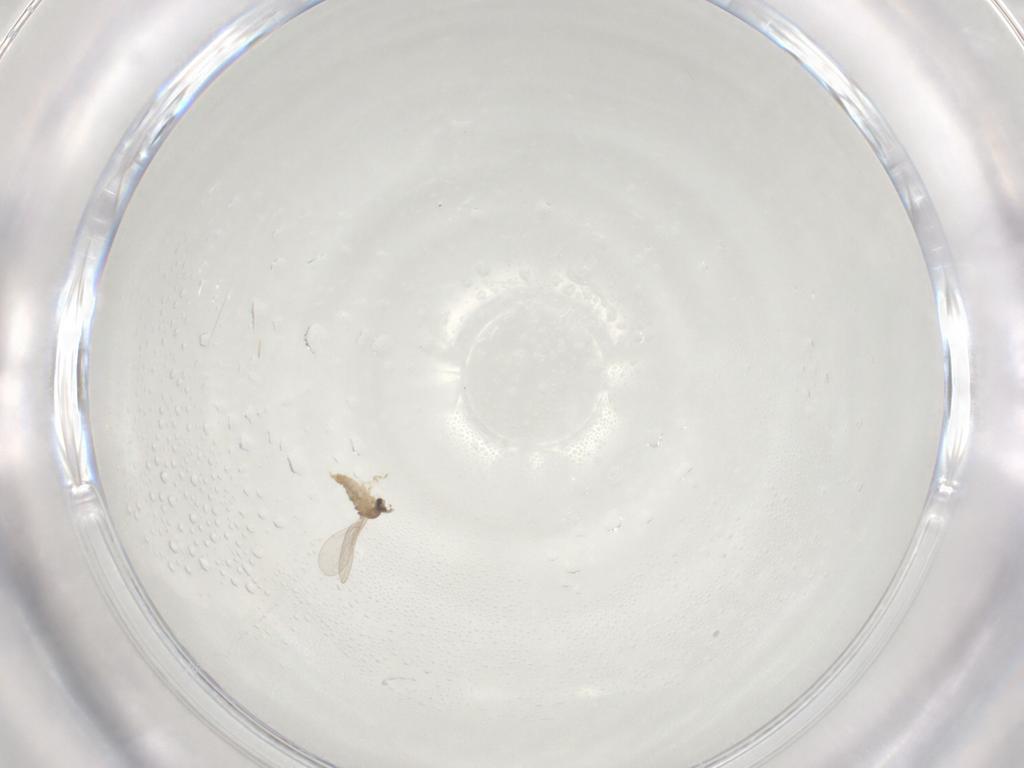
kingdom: Animalia
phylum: Arthropoda
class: Insecta
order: Diptera
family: Cecidomyiidae
